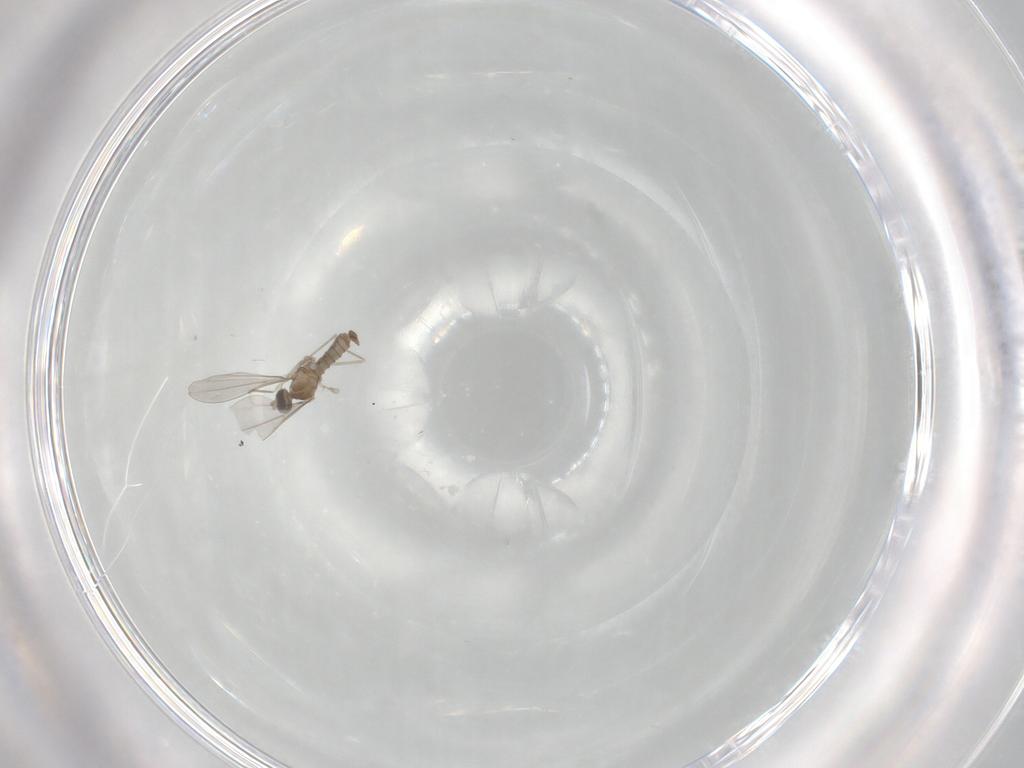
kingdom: Animalia
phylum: Arthropoda
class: Insecta
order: Diptera
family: Cecidomyiidae
